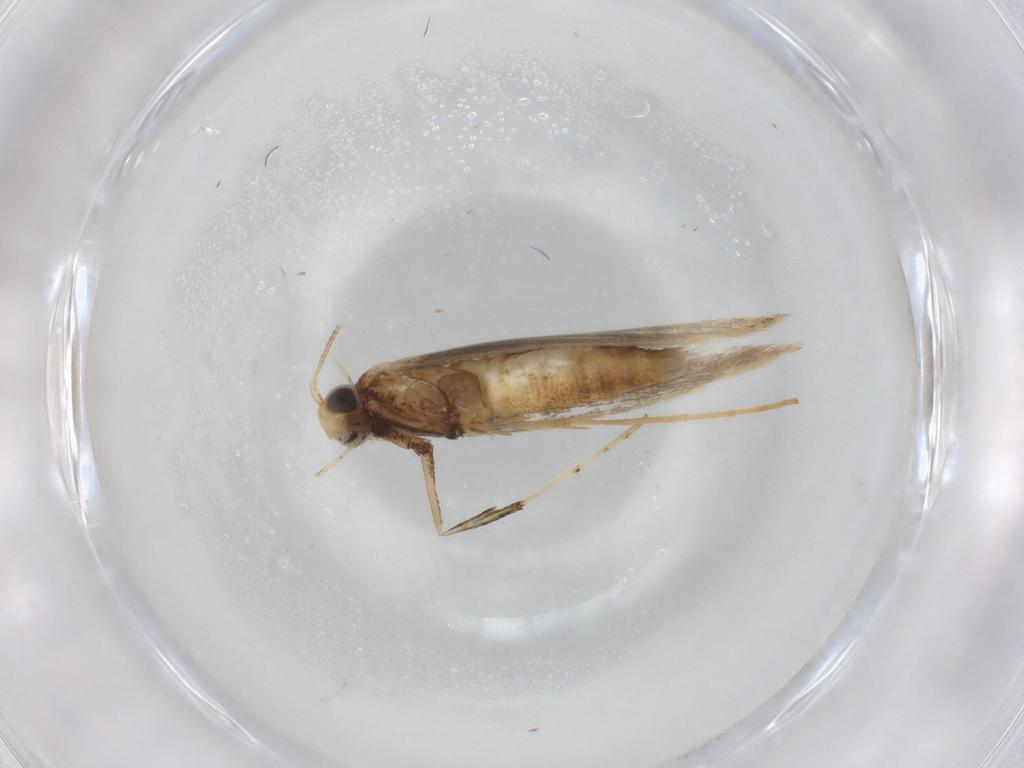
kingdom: Animalia
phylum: Arthropoda
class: Insecta
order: Lepidoptera
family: Gracillariidae
